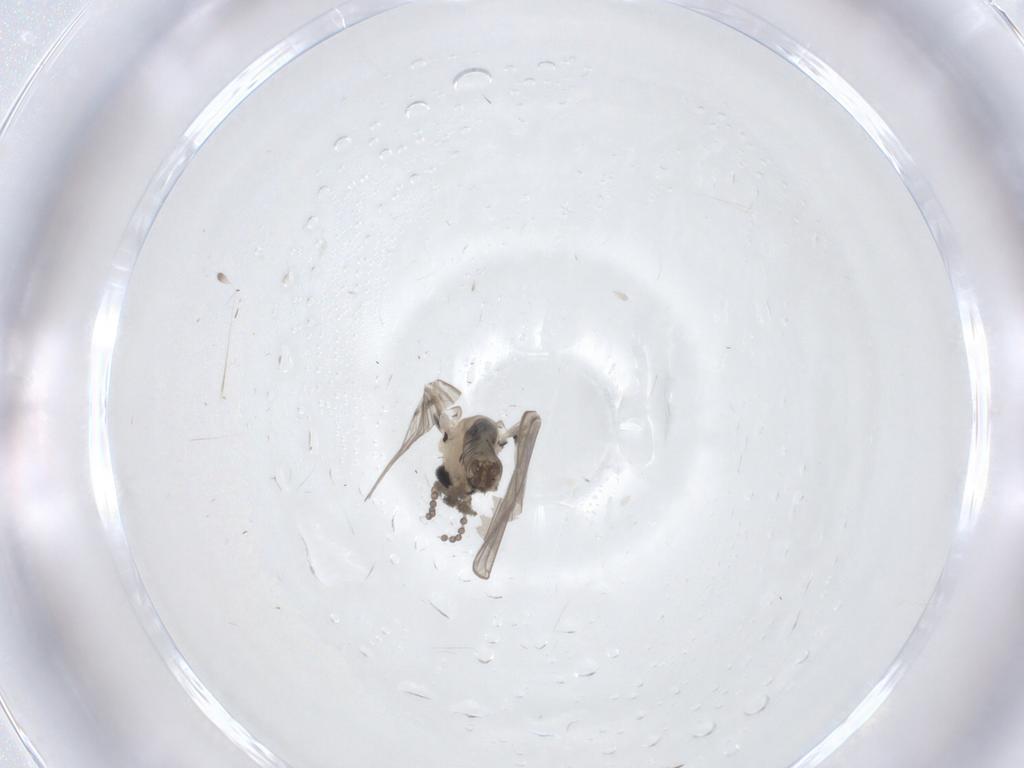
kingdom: Animalia
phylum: Arthropoda
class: Insecta
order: Diptera
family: Psychodidae
